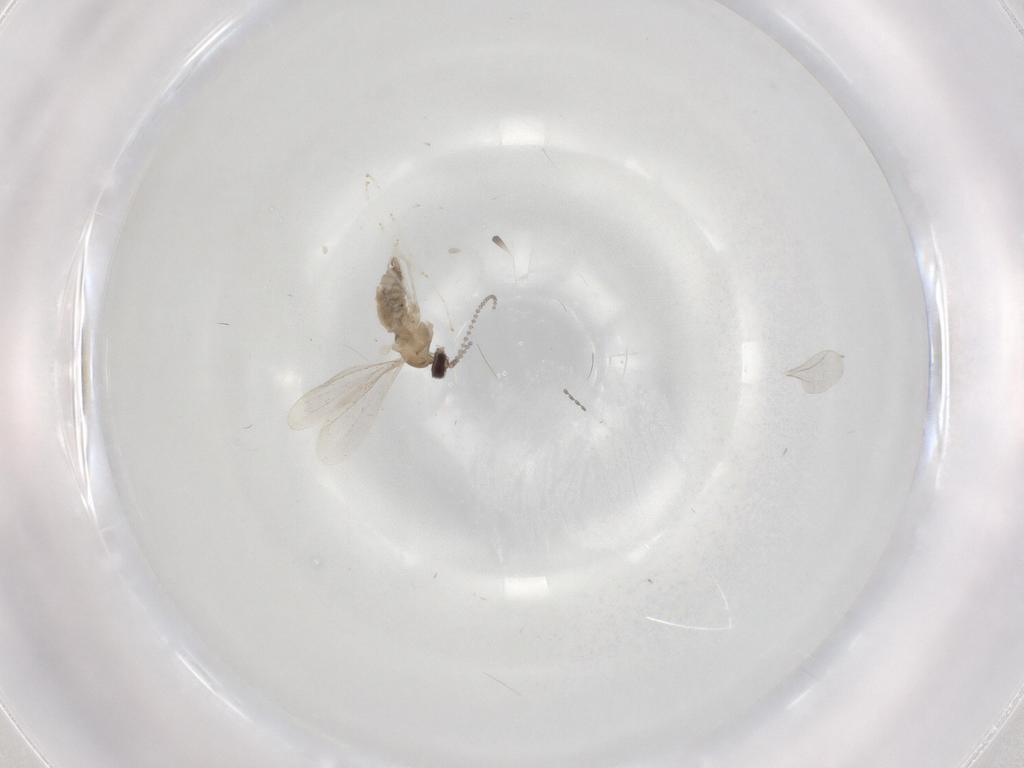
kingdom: Animalia
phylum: Arthropoda
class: Insecta
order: Diptera
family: Cecidomyiidae
